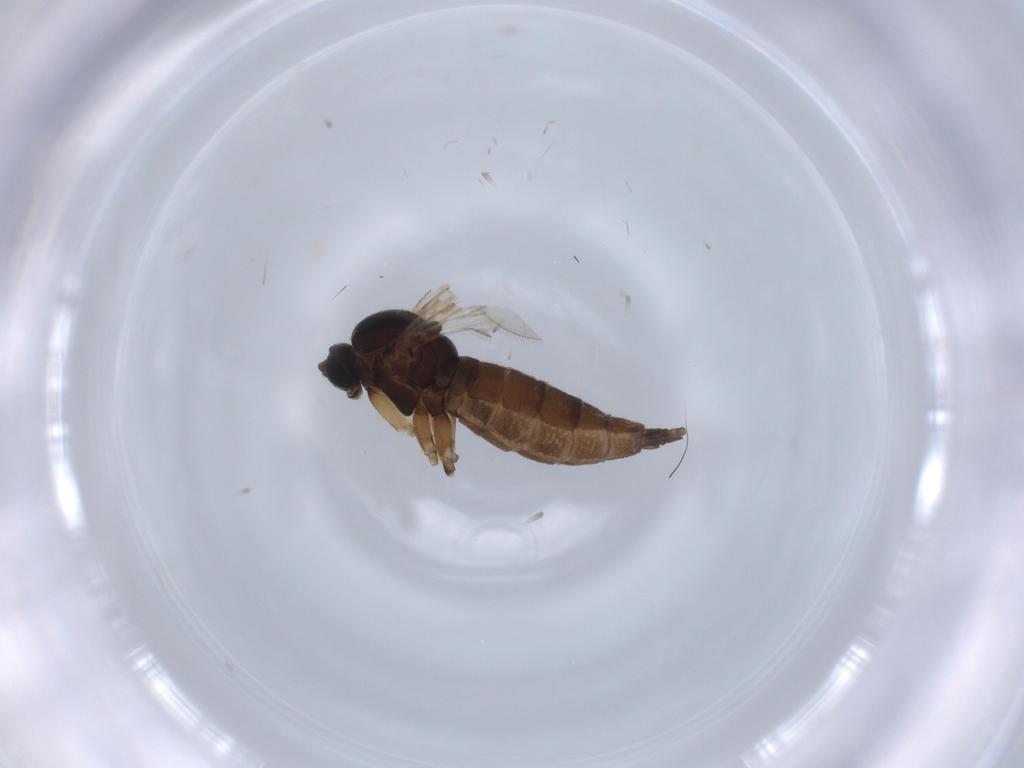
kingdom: Animalia
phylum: Arthropoda
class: Insecta
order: Diptera
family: Sciaridae
